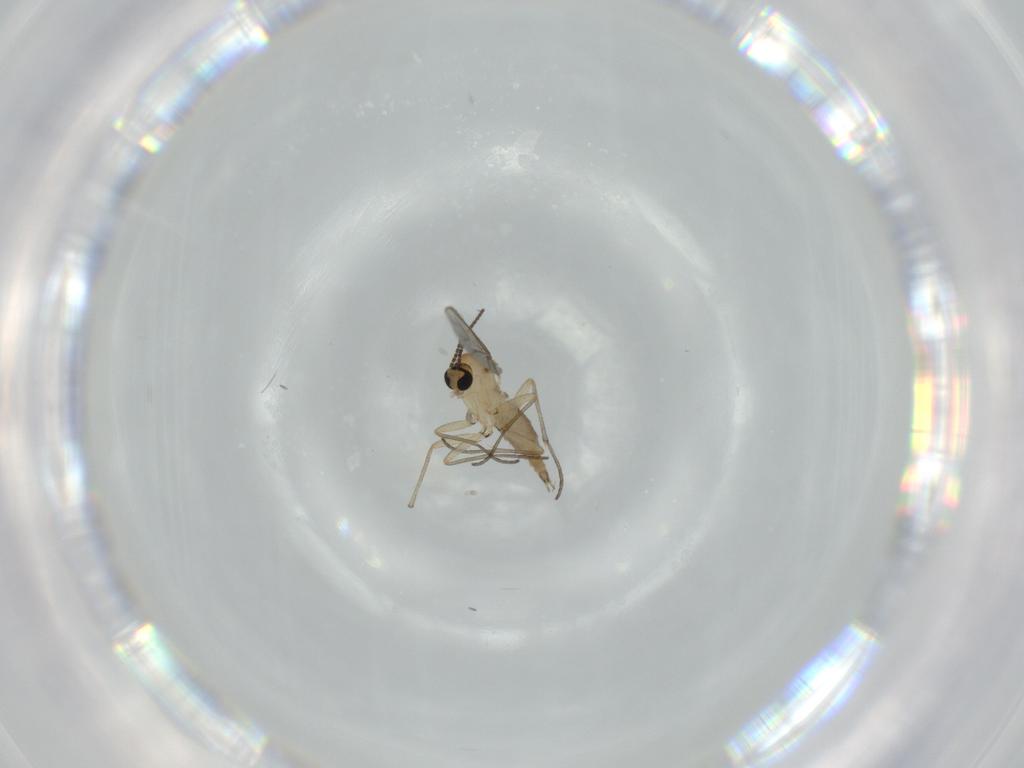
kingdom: Animalia
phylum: Arthropoda
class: Insecta
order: Diptera
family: Sciaridae
